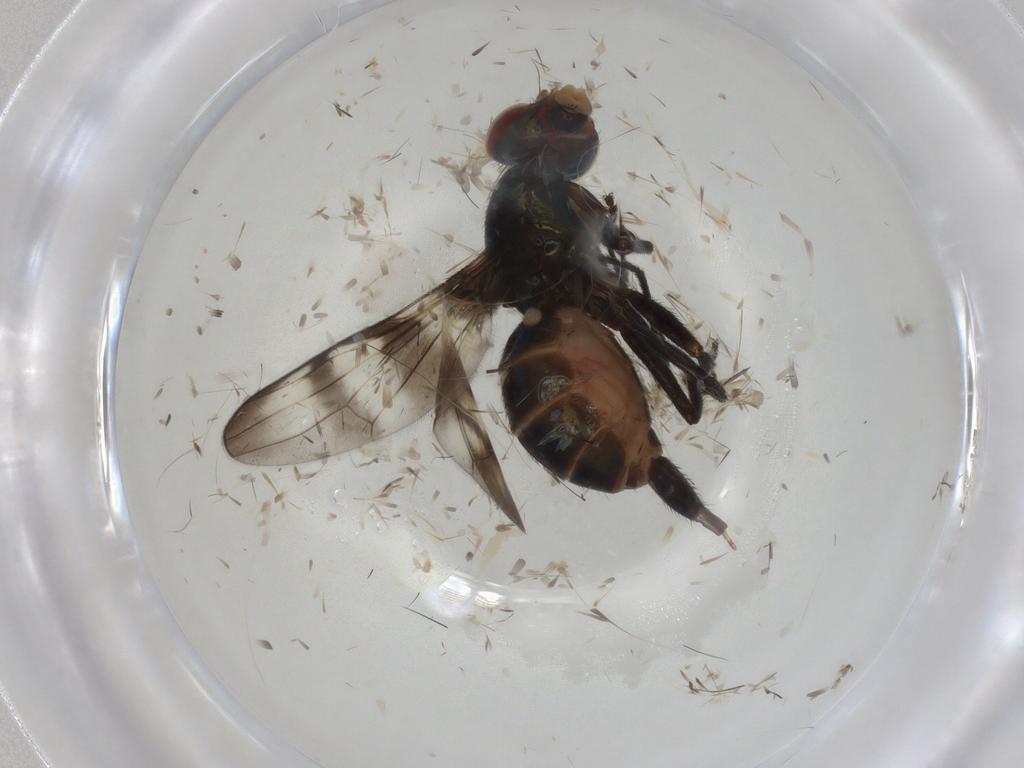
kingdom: Animalia
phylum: Arthropoda
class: Insecta
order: Diptera
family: Ulidiidae
